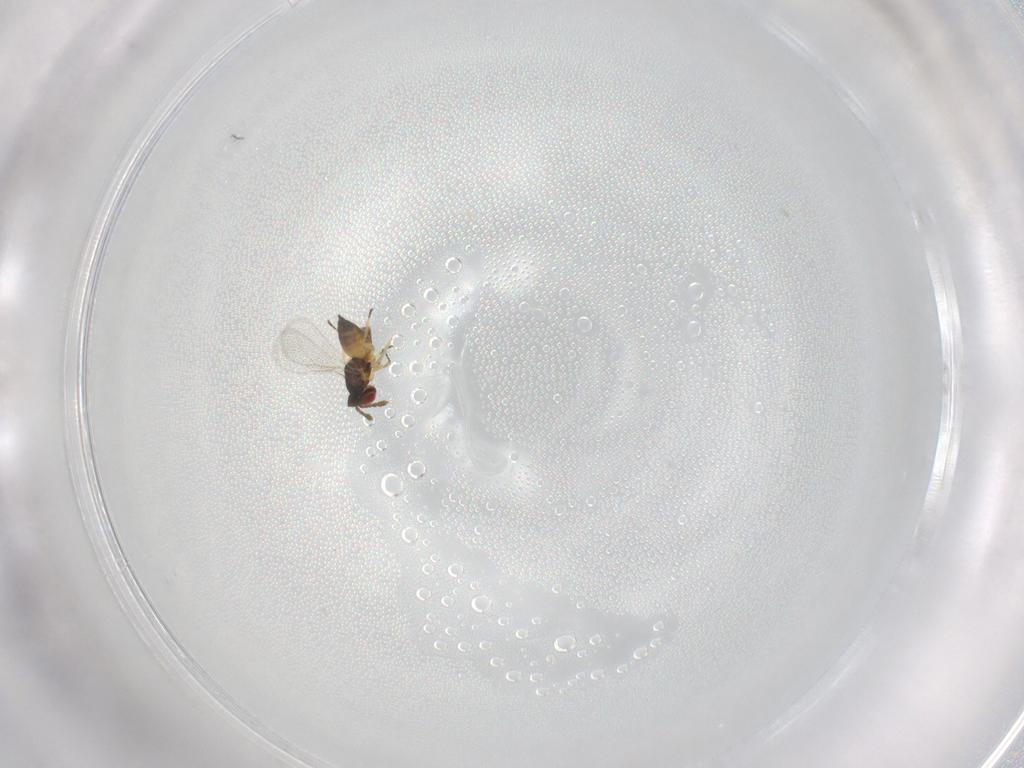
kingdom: Animalia
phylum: Arthropoda
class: Insecta
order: Hymenoptera
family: Eulophidae
